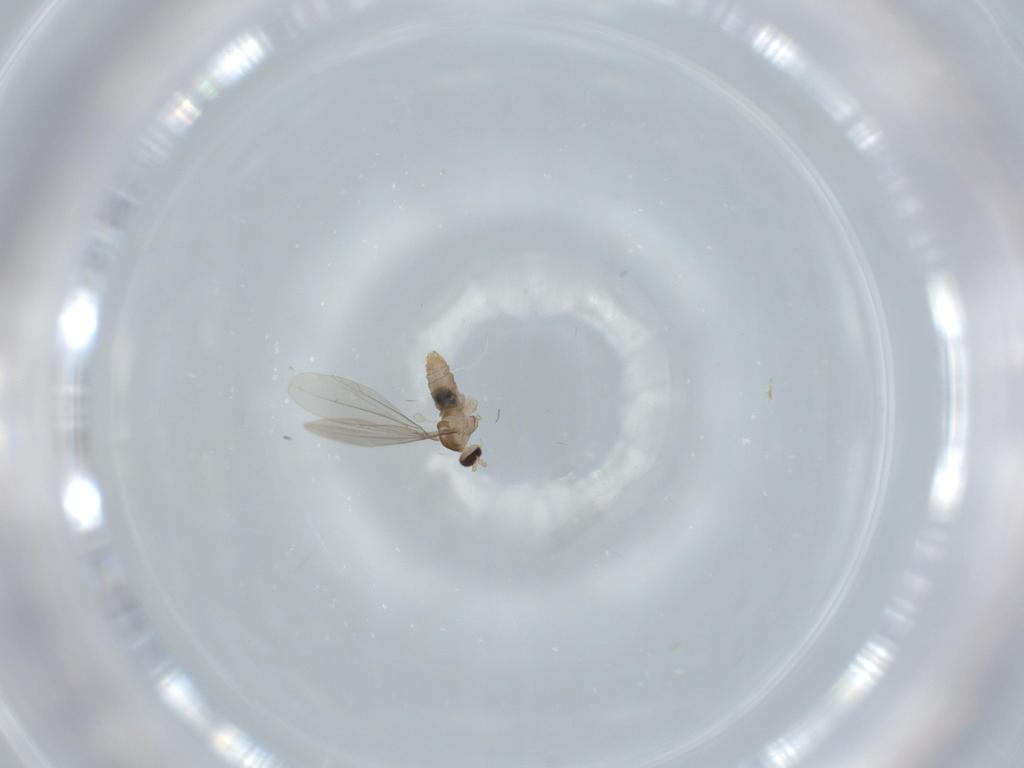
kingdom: Animalia
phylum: Arthropoda
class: Insecta
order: Diptera
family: Cecidomyiidae
